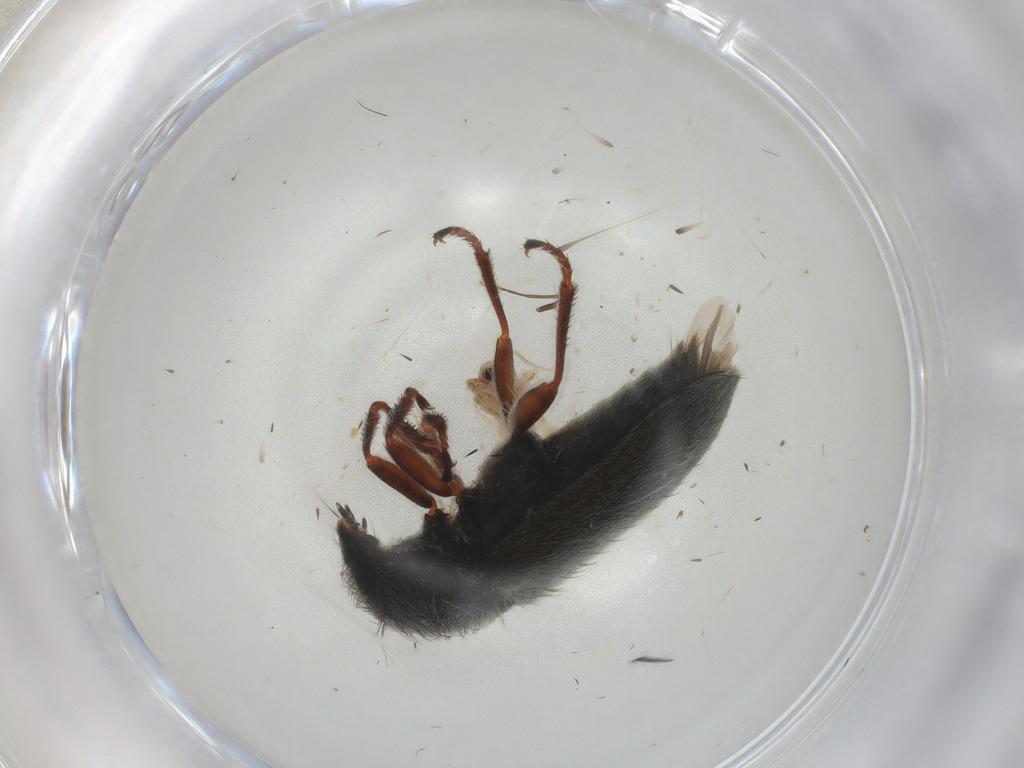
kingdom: Animalia
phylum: Arthropoda
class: Insecta
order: Coleoptera
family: Melyridae
